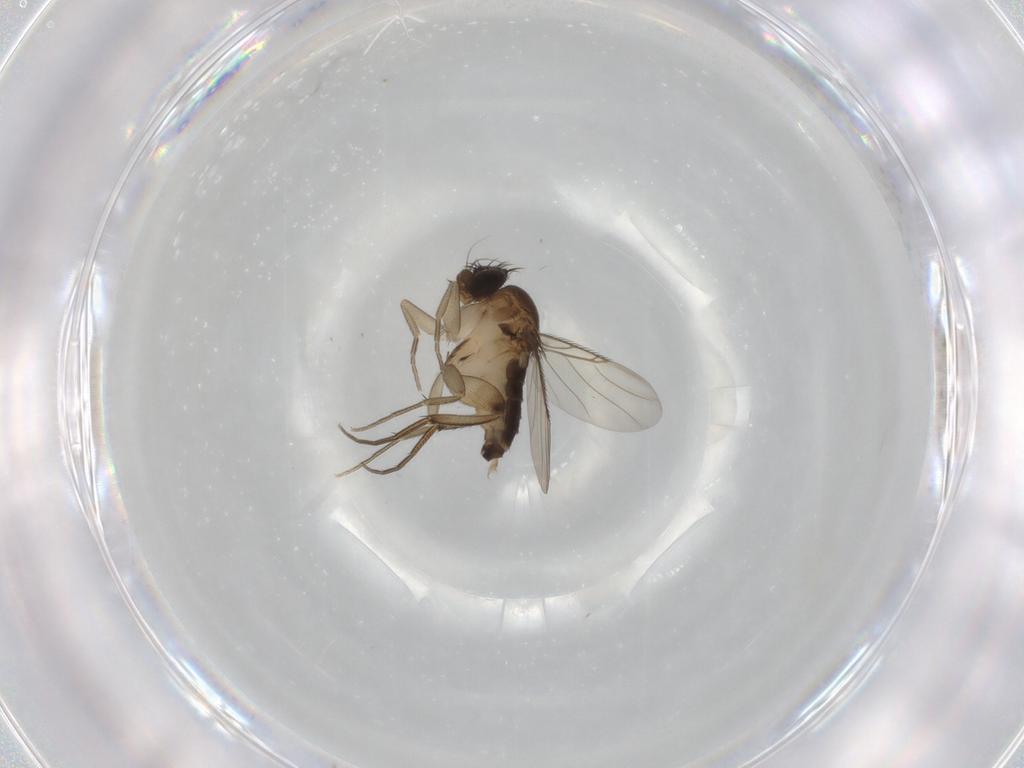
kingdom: Animalia
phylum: Arthropoda
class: Insecta
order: Diptera
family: Phoridae
